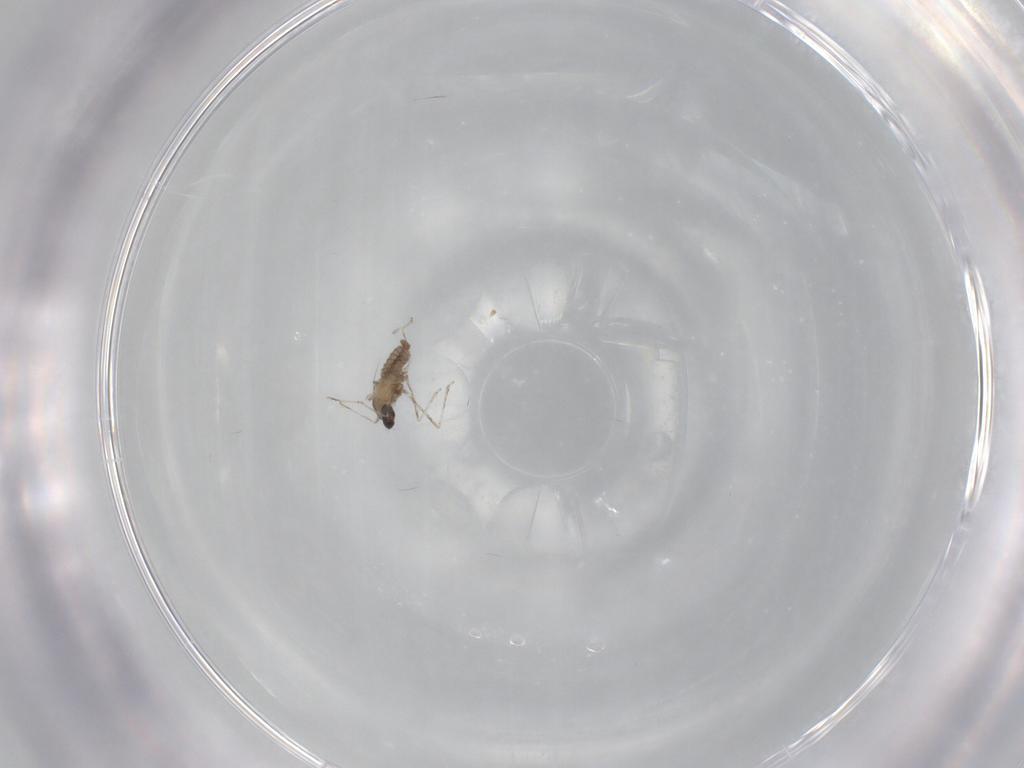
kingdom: Animalia
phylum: Arthropoda
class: Insecta
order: Diptera
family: Cecidomyiidae
